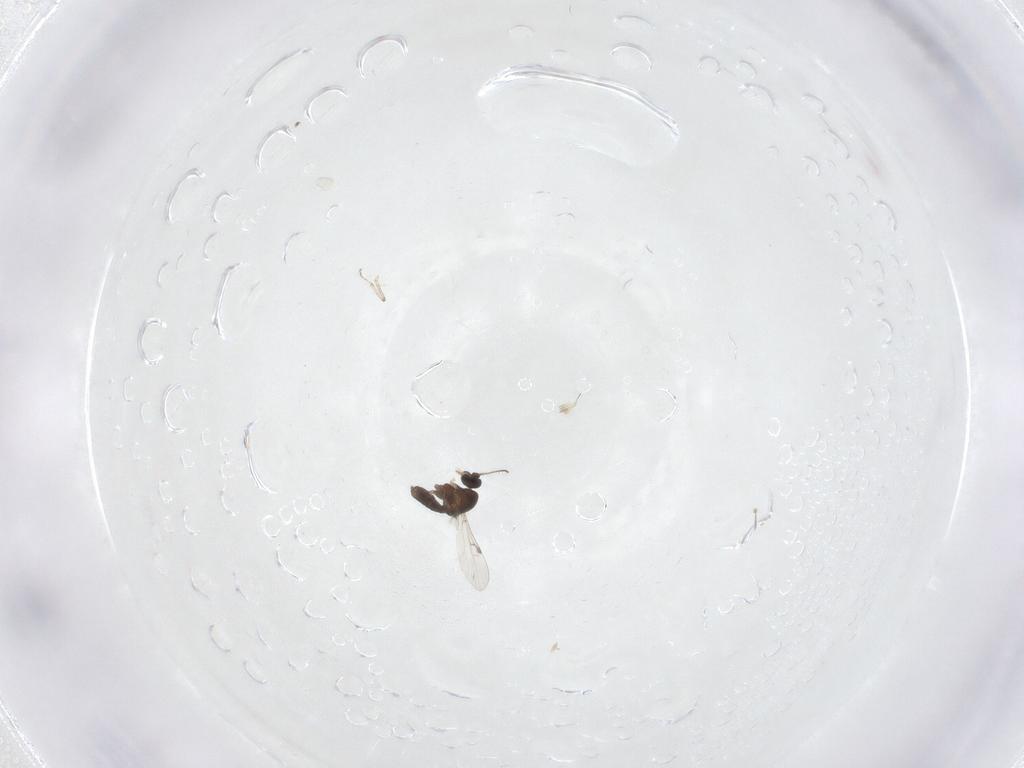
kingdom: Animalia
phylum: Arthropoda
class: Insecta
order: Diptera
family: Ceratopogonidae
